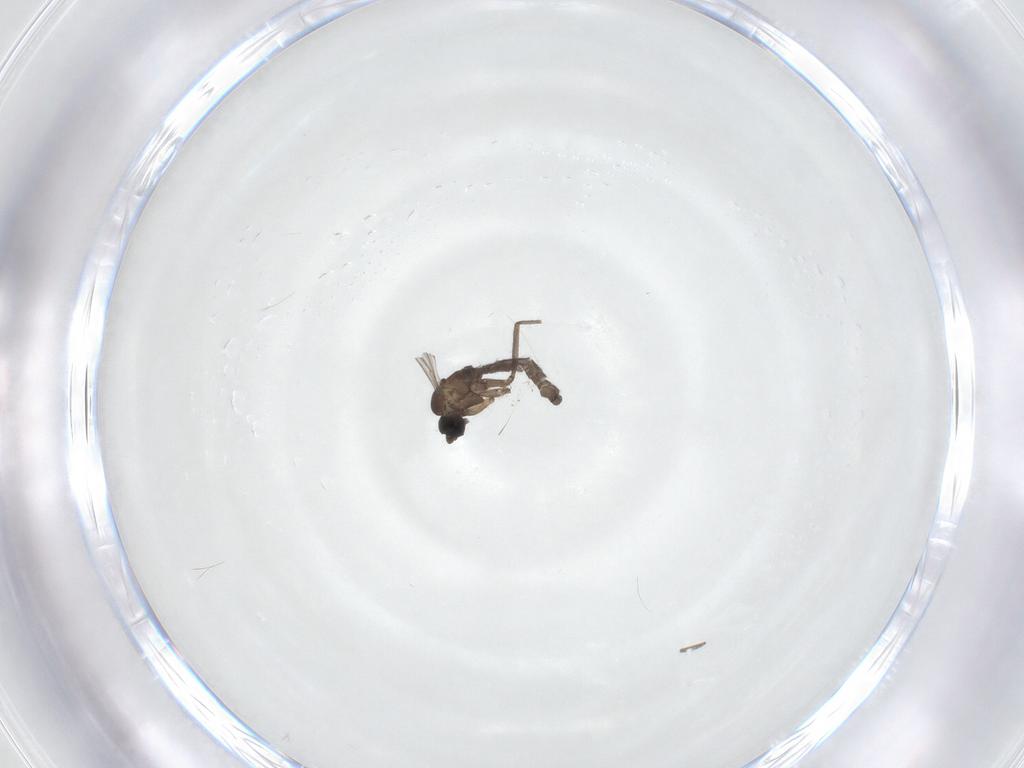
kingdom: Animalia
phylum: Arthropoda
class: Insecta
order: Diptera
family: Sciaridae
